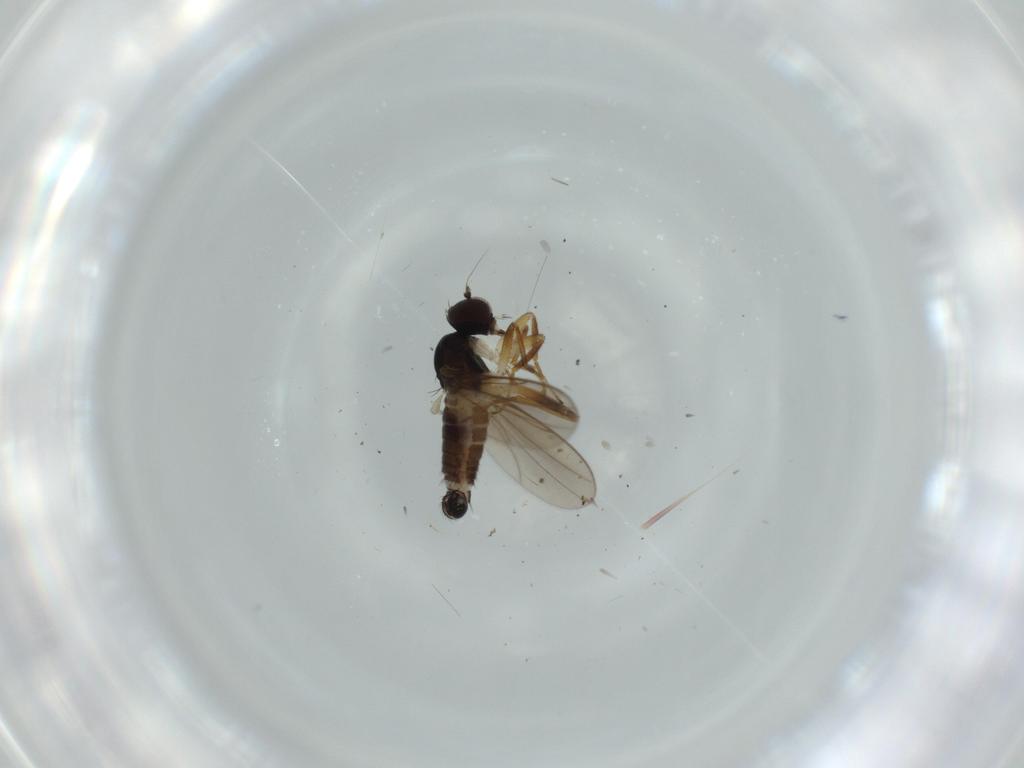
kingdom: Animalia
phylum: Arthropoda
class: Insecta
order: Diptera
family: Hybotidae
